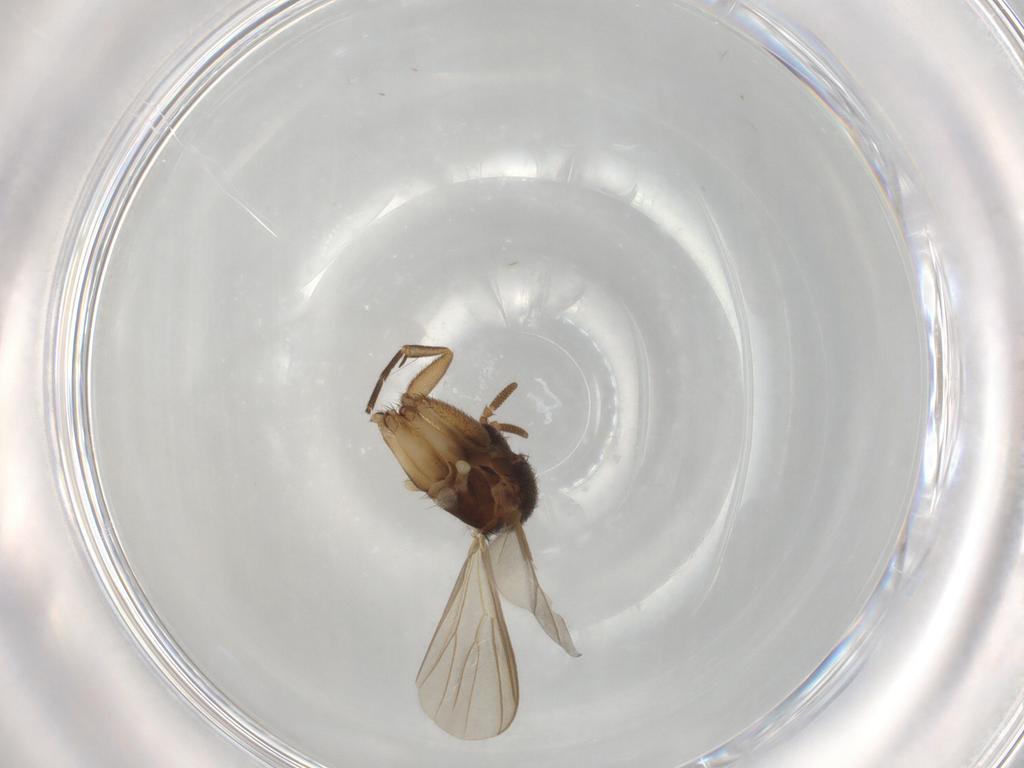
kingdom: Animalia
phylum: Arthropoda
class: Insecta
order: Diptera
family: Mycetophilidae
